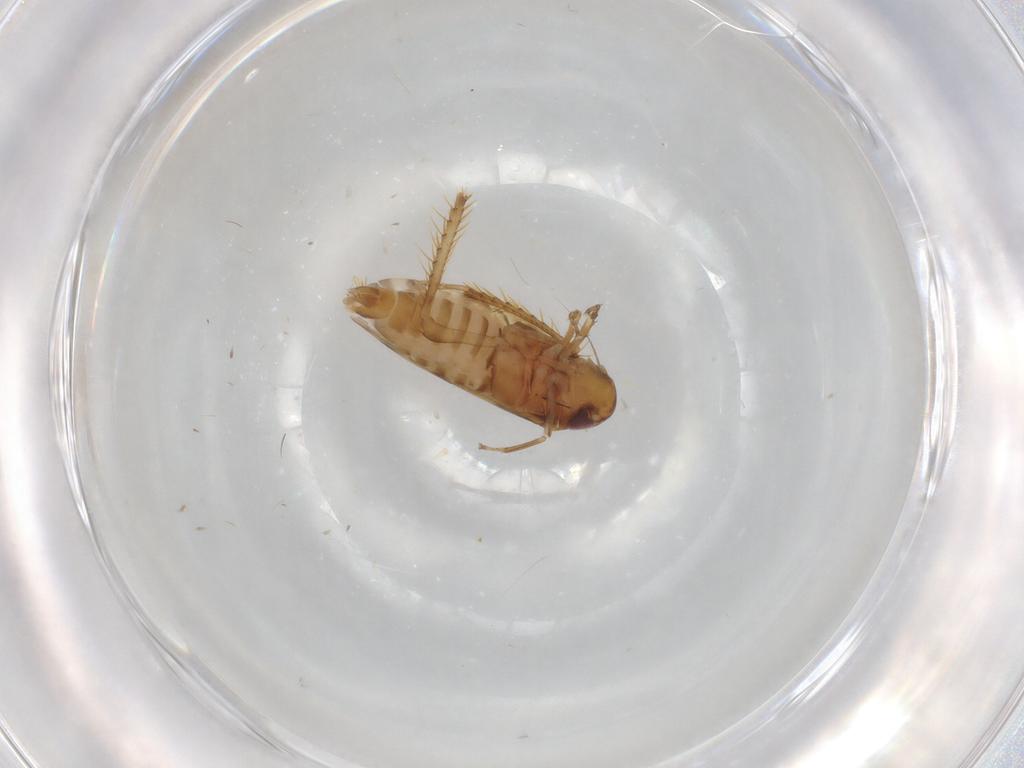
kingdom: Animalia
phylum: Arthropoda
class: Insecta
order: Hemiptera
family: Cicadellidae
